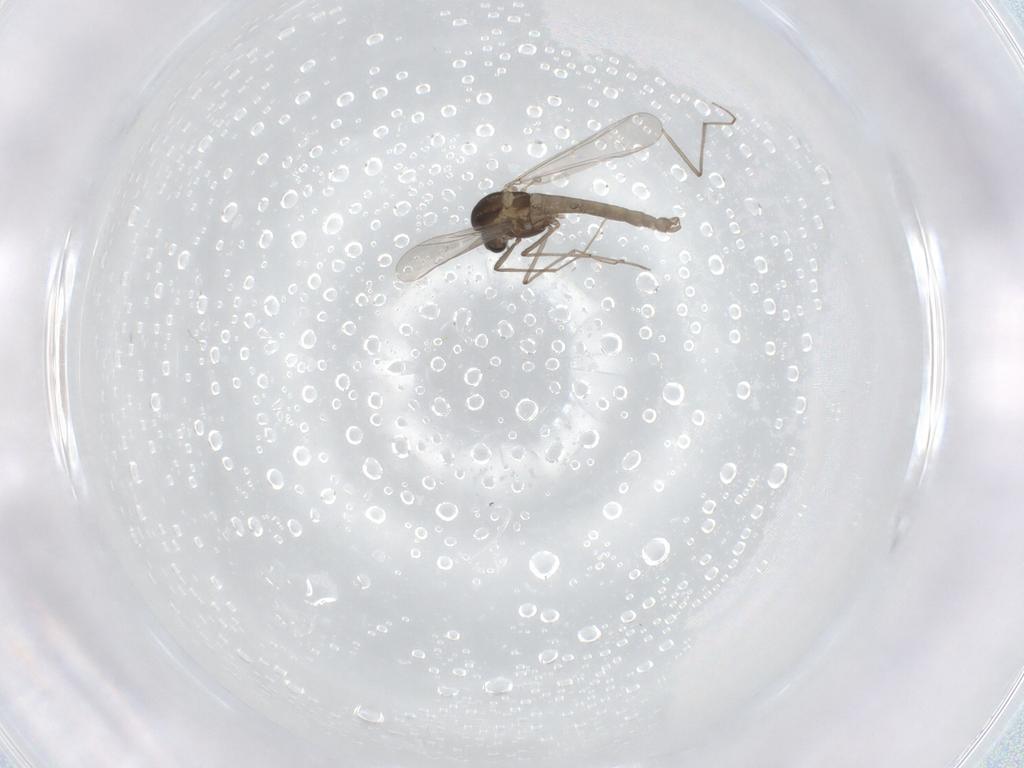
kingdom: Animalia
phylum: Arthropoda
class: Insecta
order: Diptera
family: Chironomidae
